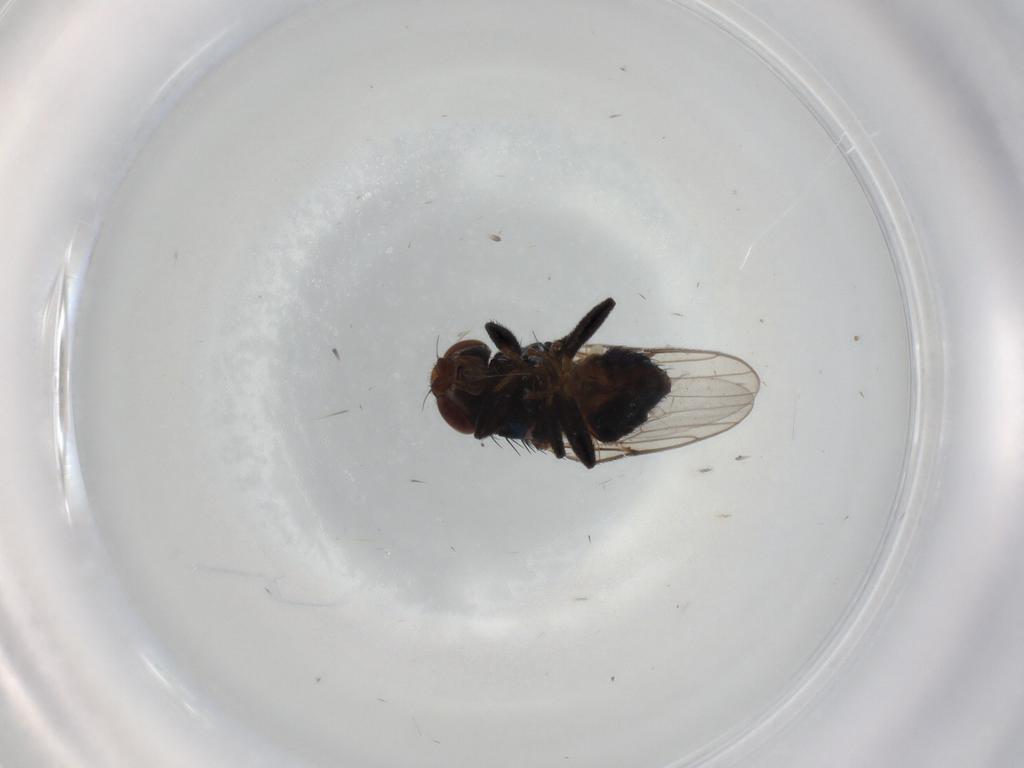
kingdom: Animalia
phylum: Arthropoda
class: Insecta
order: Diptera
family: Chloropidae
